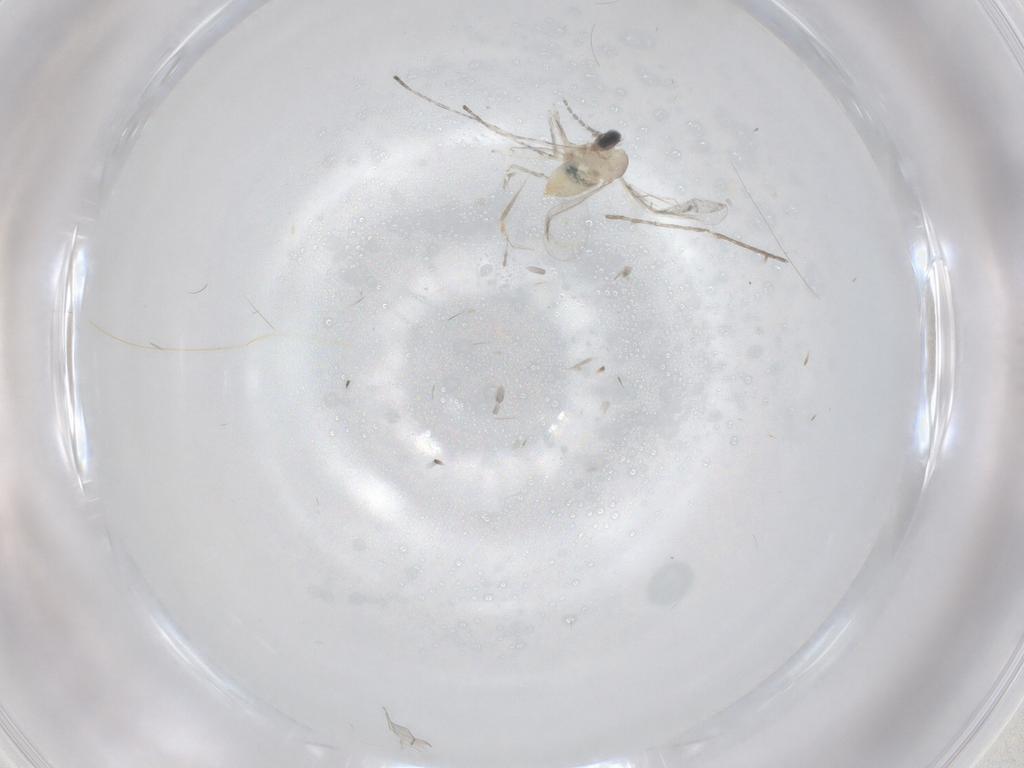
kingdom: Animalia
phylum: Arthropoda
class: Insecta
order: Diptera
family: Cecidomyiidae
